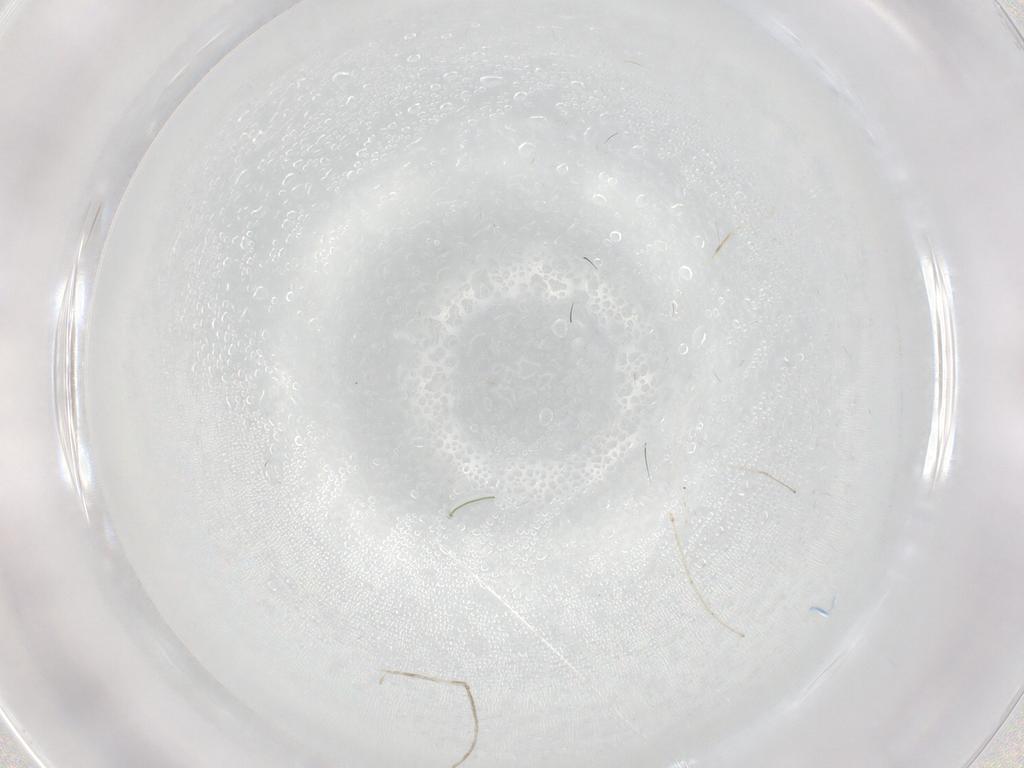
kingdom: Animalia
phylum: Arthropoda
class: Insecta
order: Diptera
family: Cecidomyiidae
